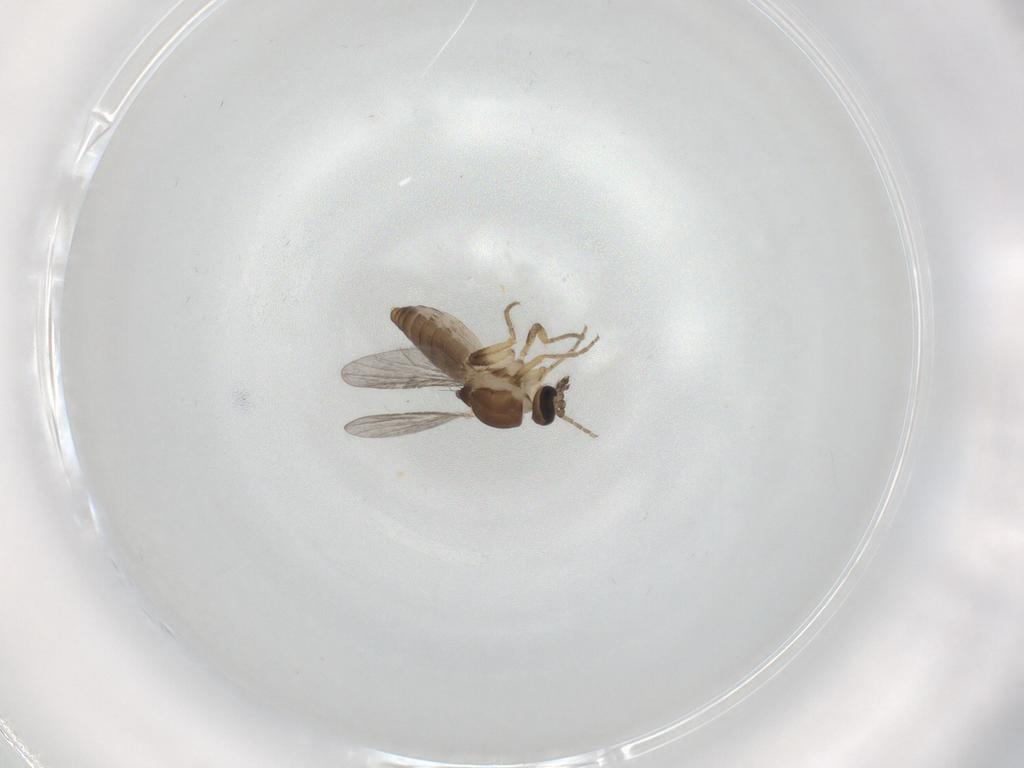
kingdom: Animalia
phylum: Arthropoda
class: Insecta
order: Diptera
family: Ceratopogonidae
